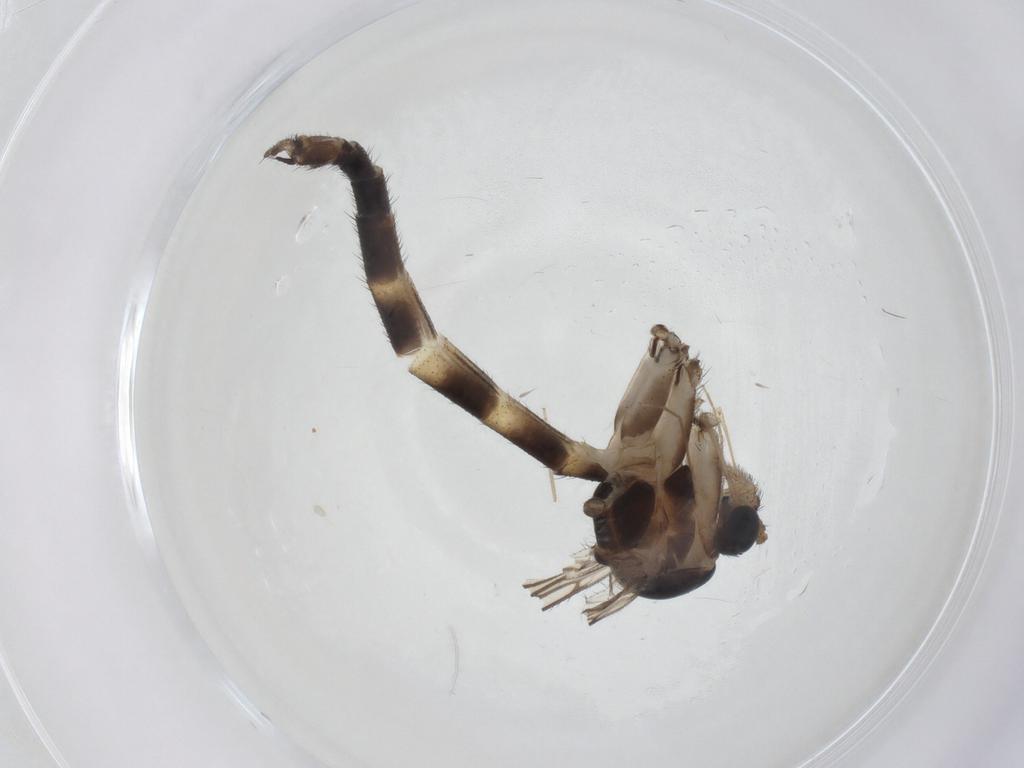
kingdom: Animalia
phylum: Arthropoda
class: Insecta
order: Diptera
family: Chironomidae
